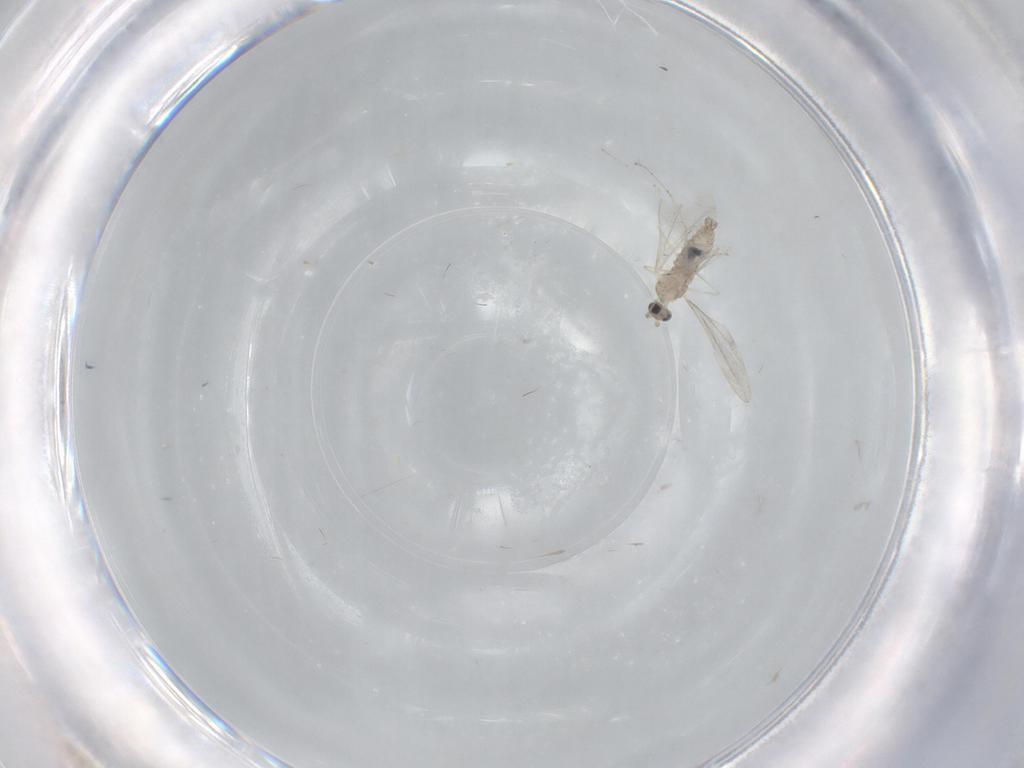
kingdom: Animalia
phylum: Arthropoda
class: Insecta
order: Diptera
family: Cecidomyiidae
